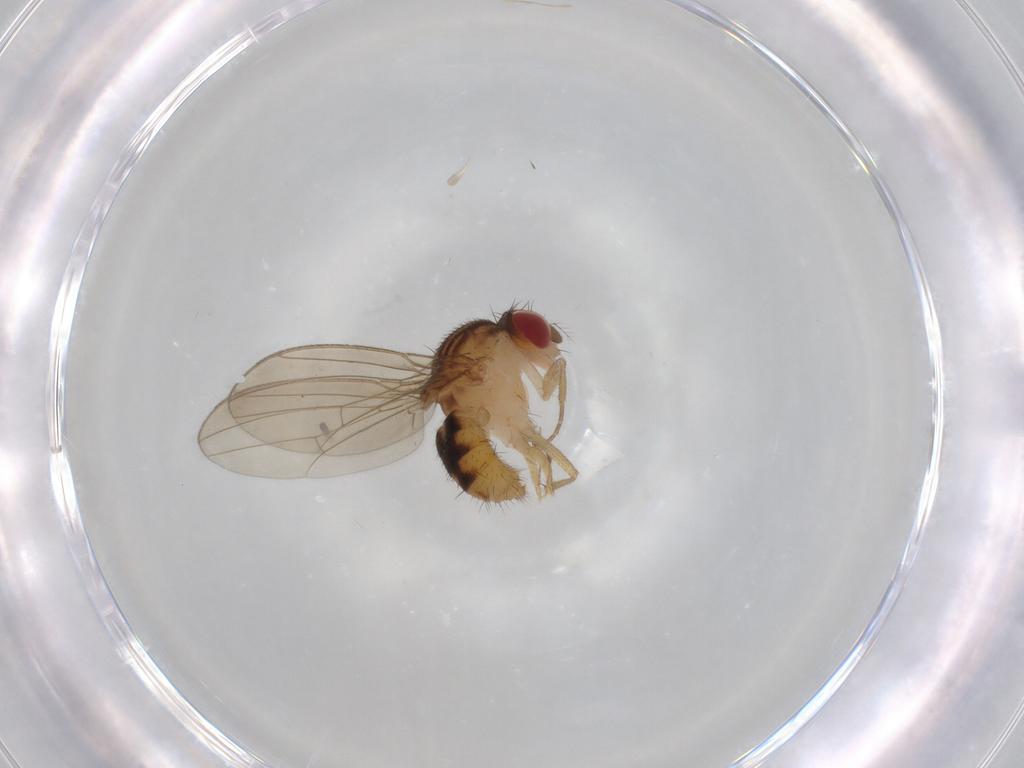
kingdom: Animalia
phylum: Arthropoda
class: Insecta
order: Diptera
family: Drosophilidae
